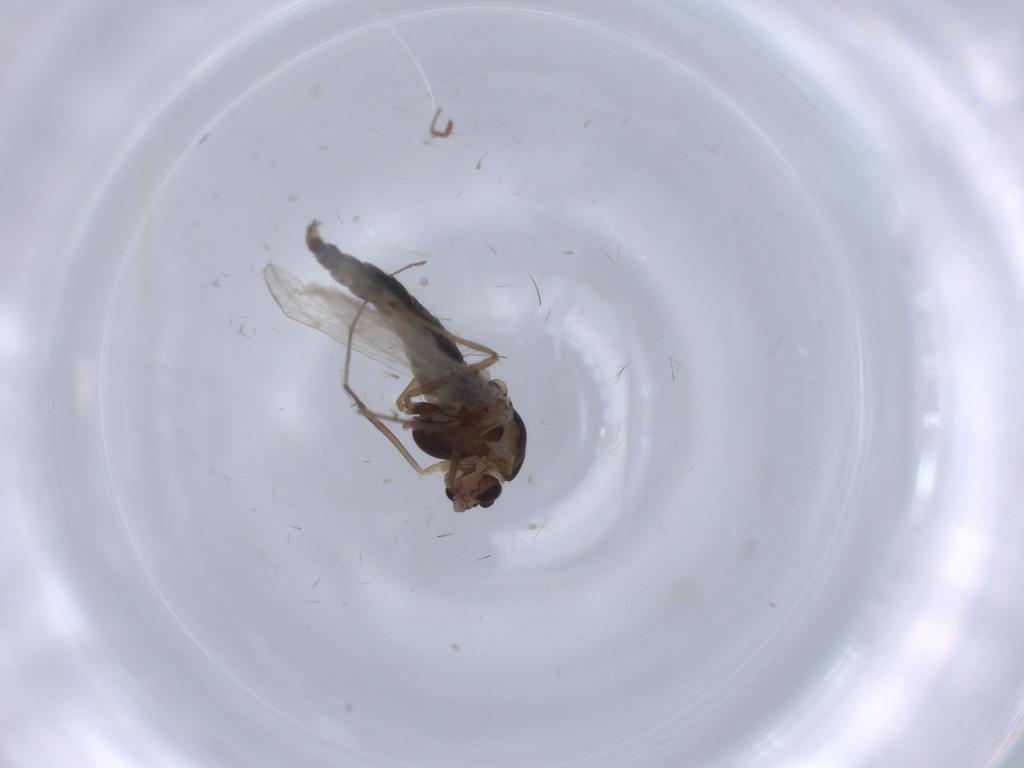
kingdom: Animalia
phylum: Arthropoda
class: Insecta
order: Diptera
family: Chironomidae
